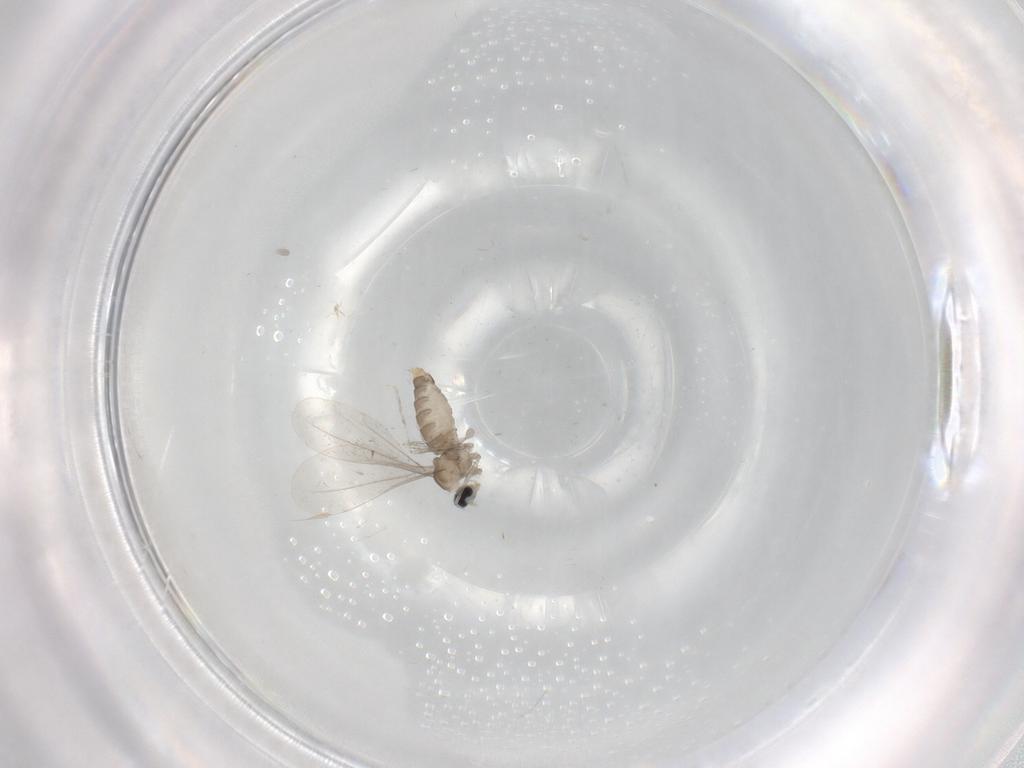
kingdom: Animalia
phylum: Arthropoda
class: Insecta
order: Diptera
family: Cecidomyiidae
